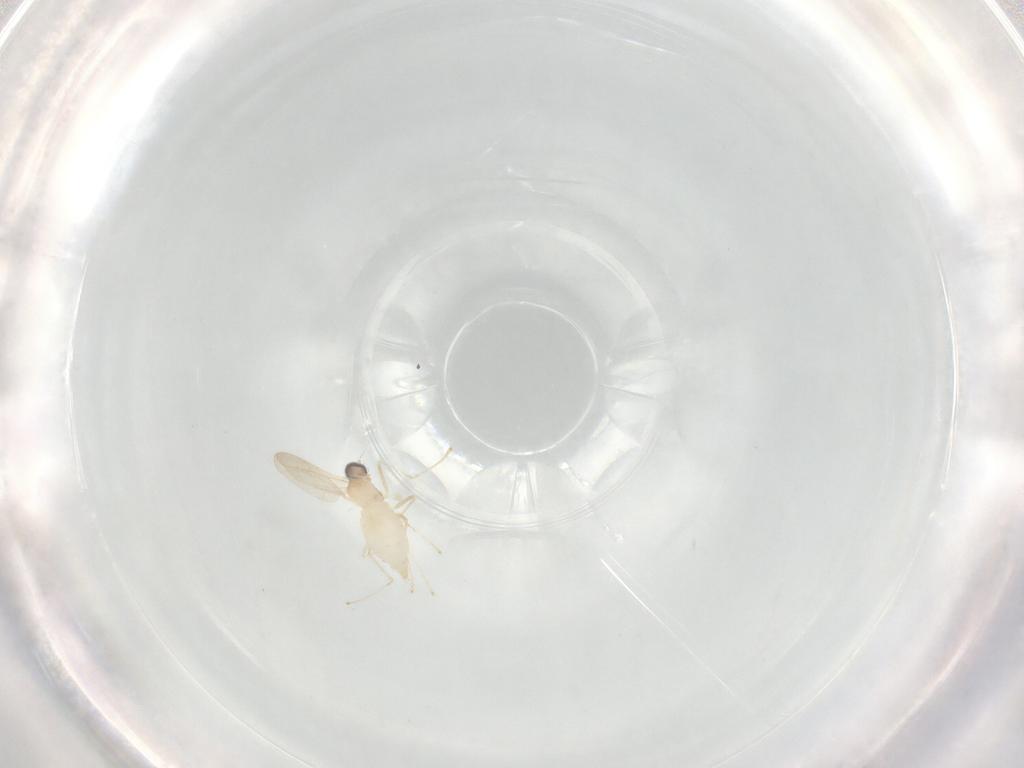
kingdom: Animalia
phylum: Arthropoda
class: Insecta
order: Diptera
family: Cecidomyiidae
